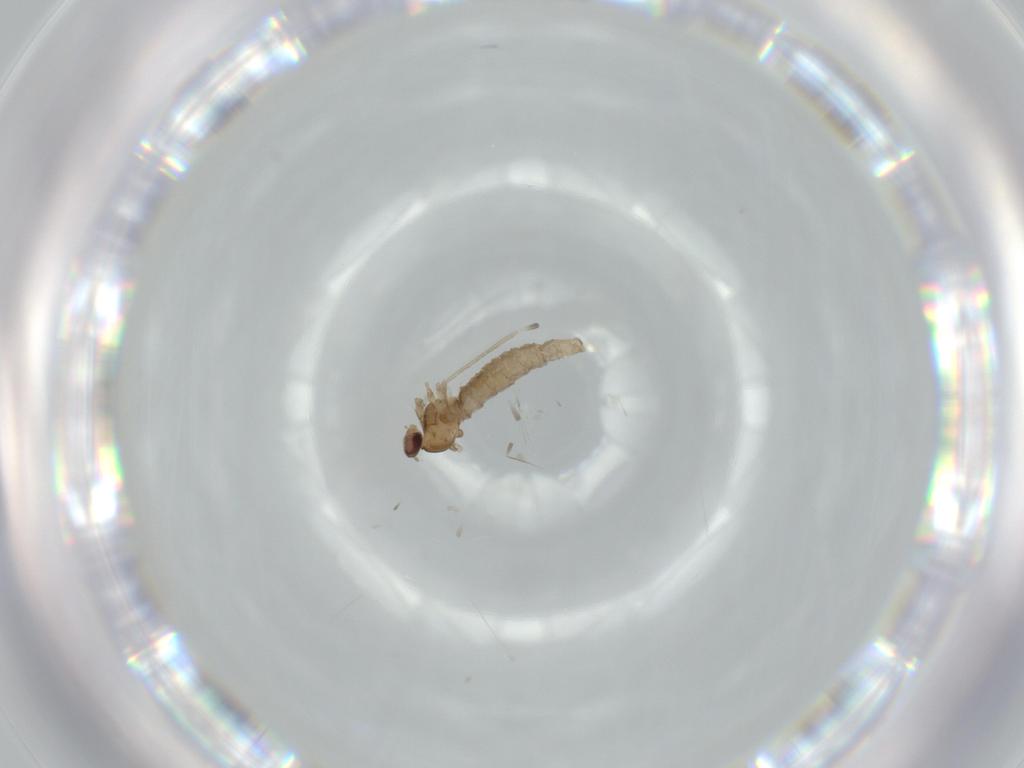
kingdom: Animalia
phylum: Arthropoda
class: Insecta
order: Diptera
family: Cecidomyiidae
